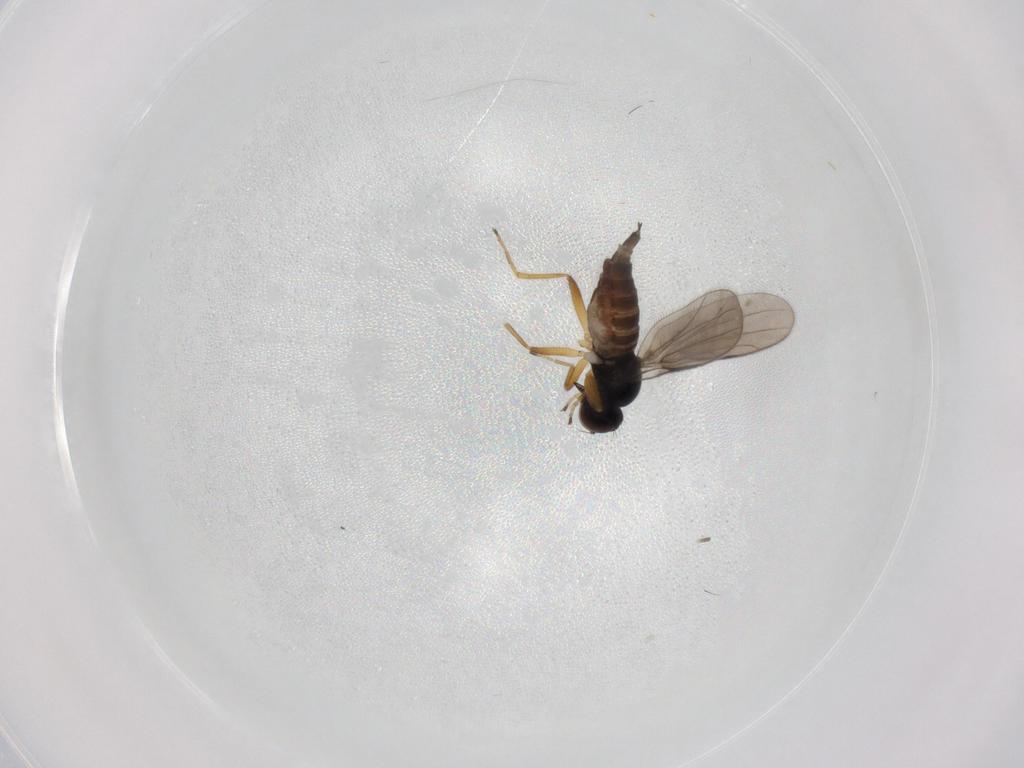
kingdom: Animalia
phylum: Arthropoda
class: Insecta
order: Diptera
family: Hybotidae
